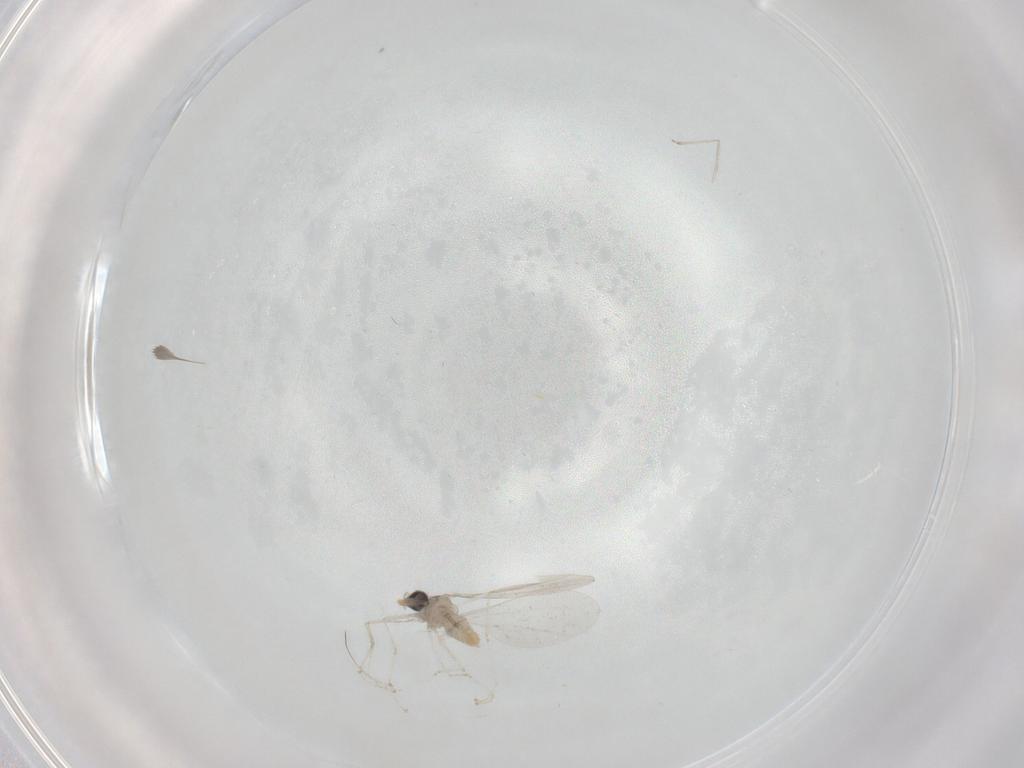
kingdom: Animalia
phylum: Arthropoda
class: Insecta
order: Diptera
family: Cecidomyiidae
